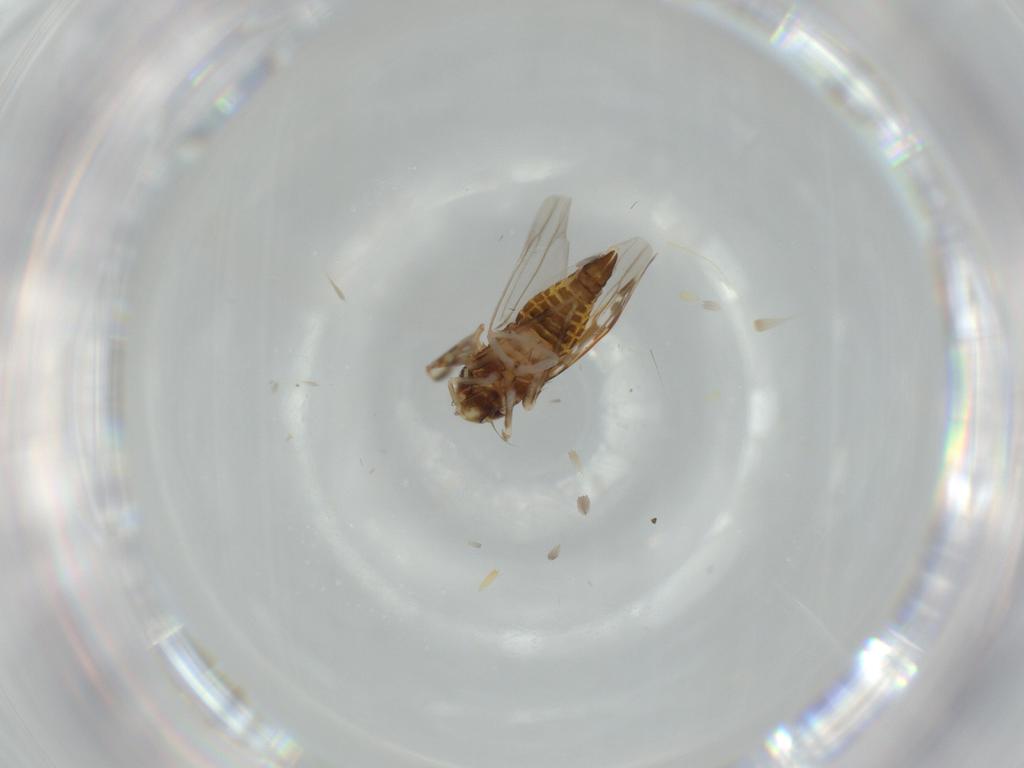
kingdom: Animalia
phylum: Arthropoda
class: Insecta
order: Hemiptera
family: Cicadellidae
